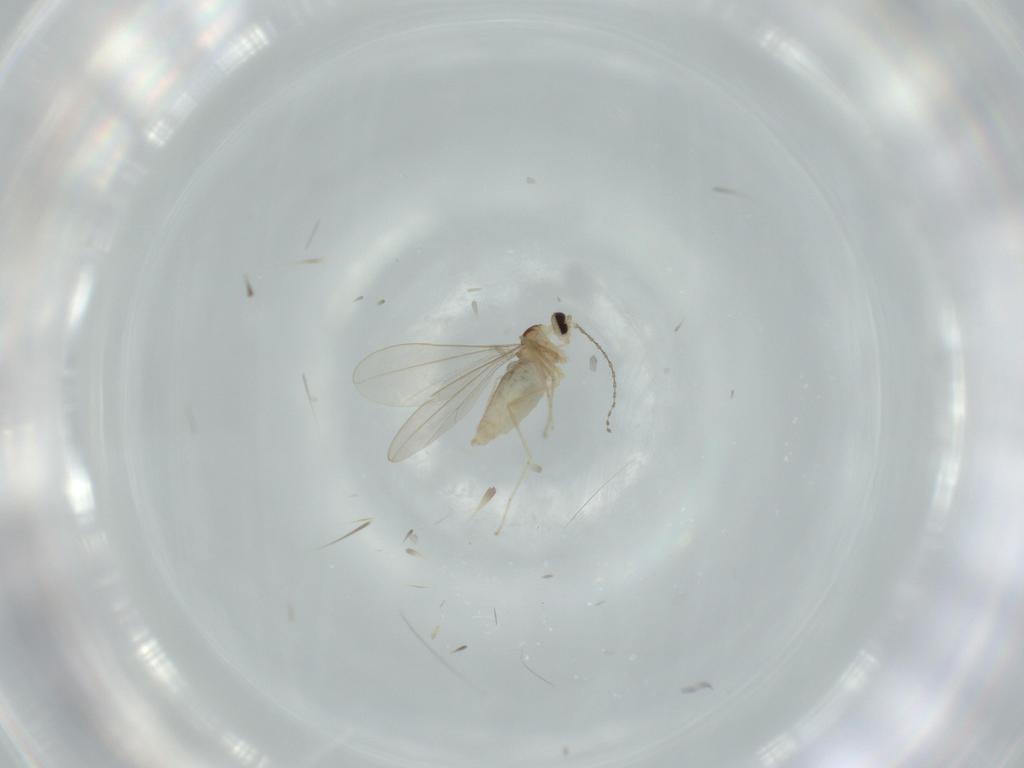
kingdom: Animalia
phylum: Arthropoda
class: Insecta
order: Diptera
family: Cecidomyiidae
